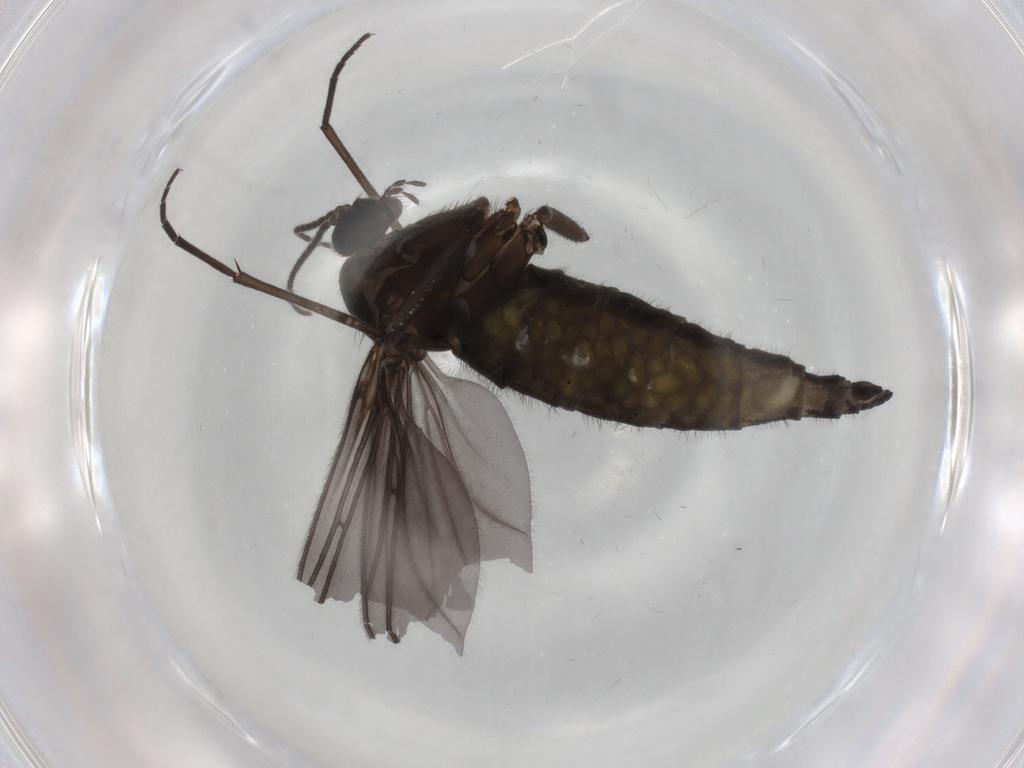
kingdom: Animalia
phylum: Arthropoda
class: Insecta
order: Diptera
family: Sciaridae
